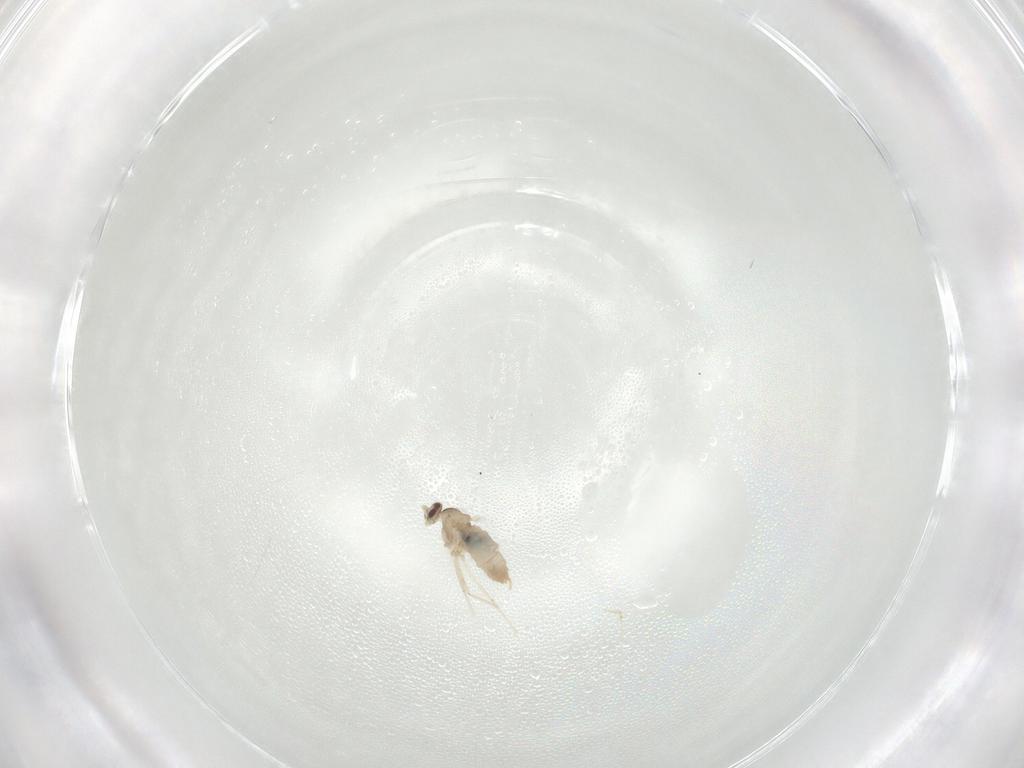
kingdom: Animalia
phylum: Arthropoda
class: Insecta
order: Diptera
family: Cecidomyiidae
